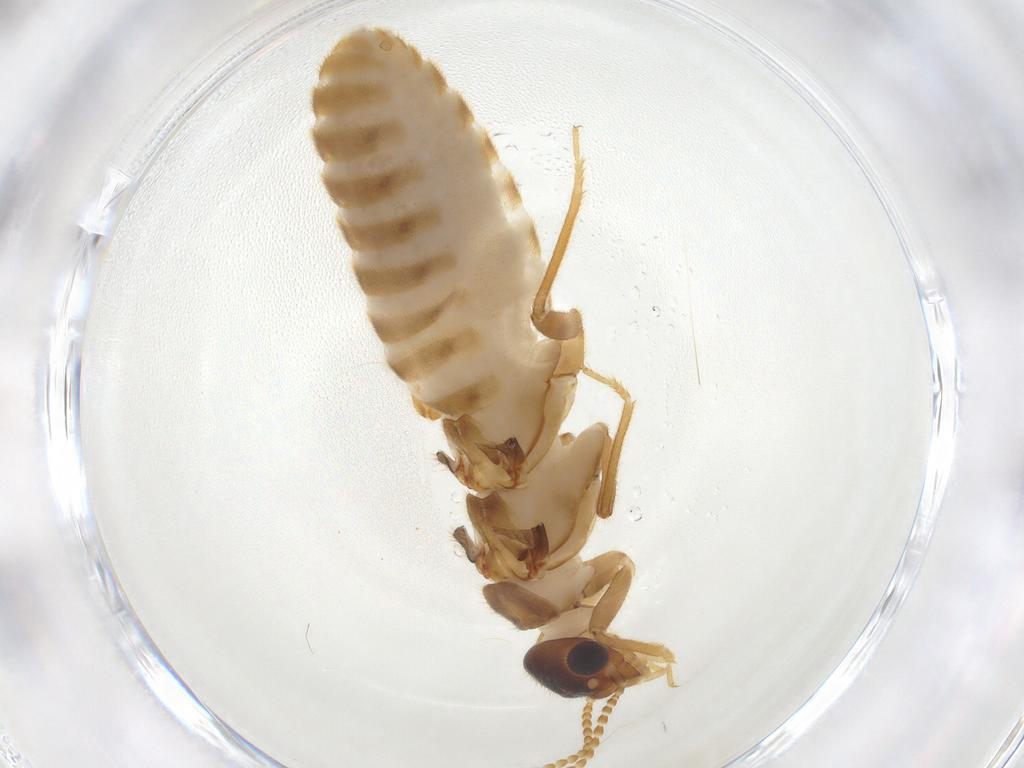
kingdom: Animalia
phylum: Arthropoda
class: Insecta
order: Blattodea
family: Termitidae
